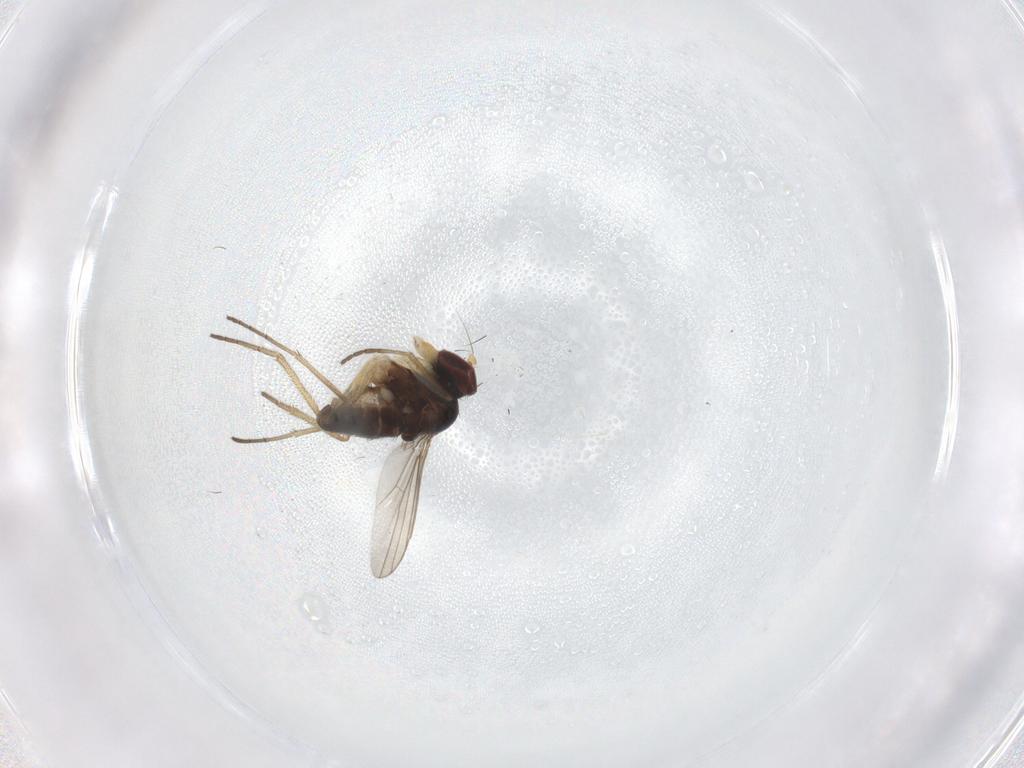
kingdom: Animalia
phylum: Arthropoda
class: Insecta
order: Diptera
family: Dolichopodidae
